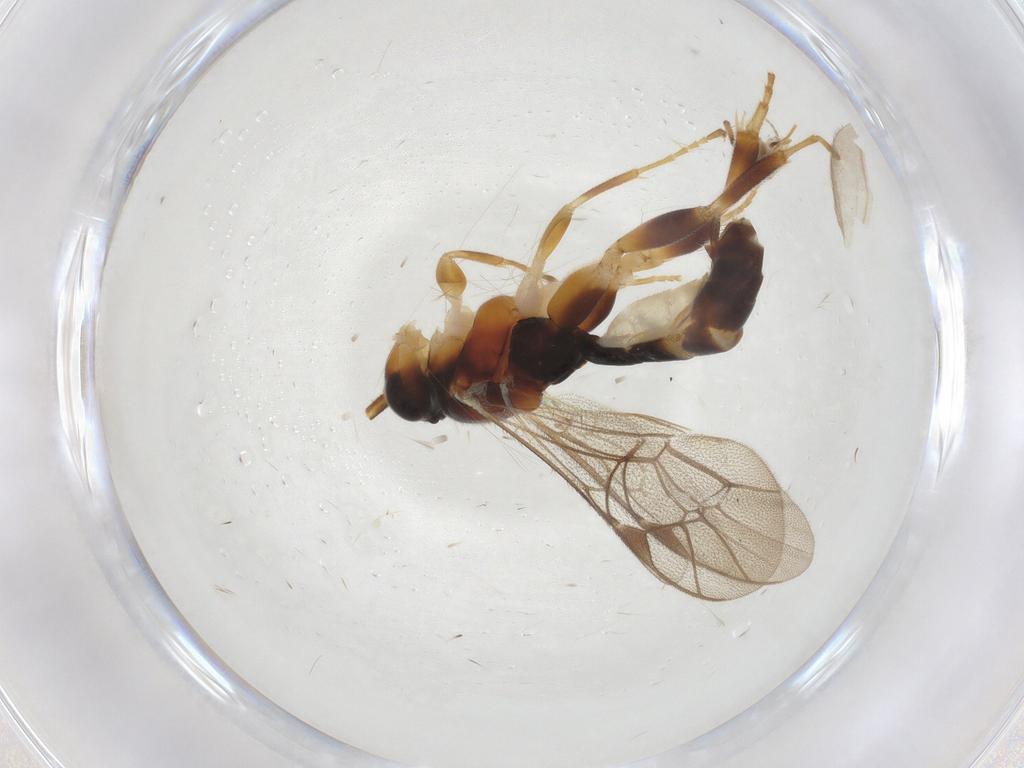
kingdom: Animalia
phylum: Arthropoda
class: Insecta
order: Hymenoptera
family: Ichneumonidae
